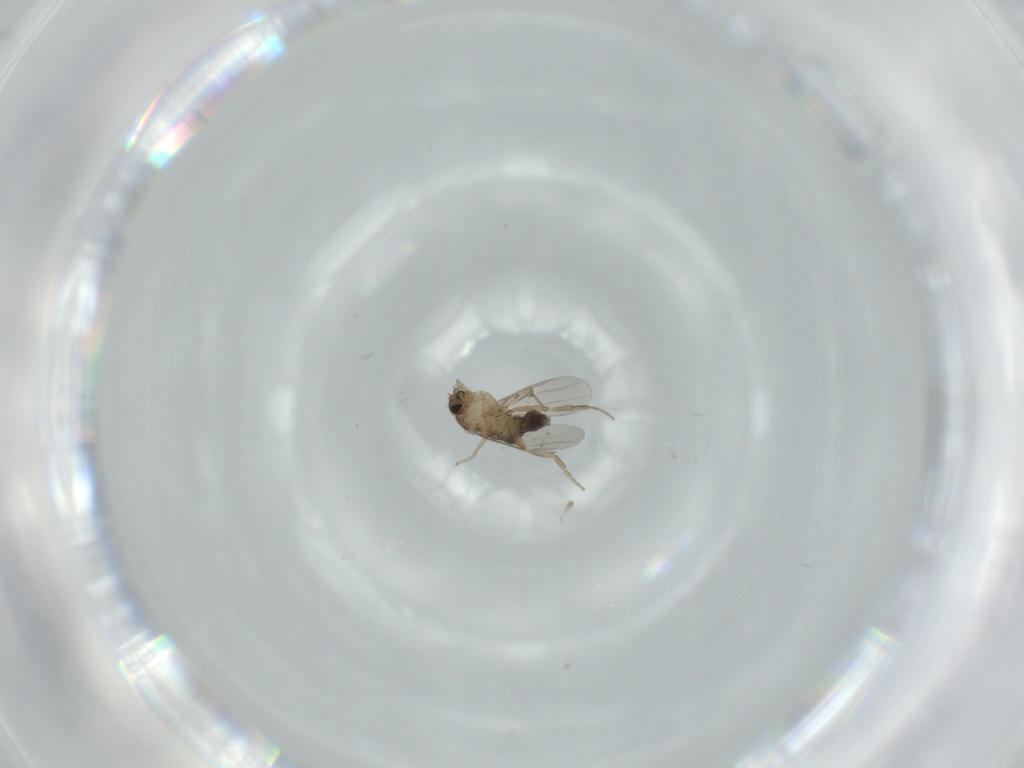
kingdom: Animalia
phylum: Arthropoda
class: Insecta
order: Diptera
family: Phoridae
